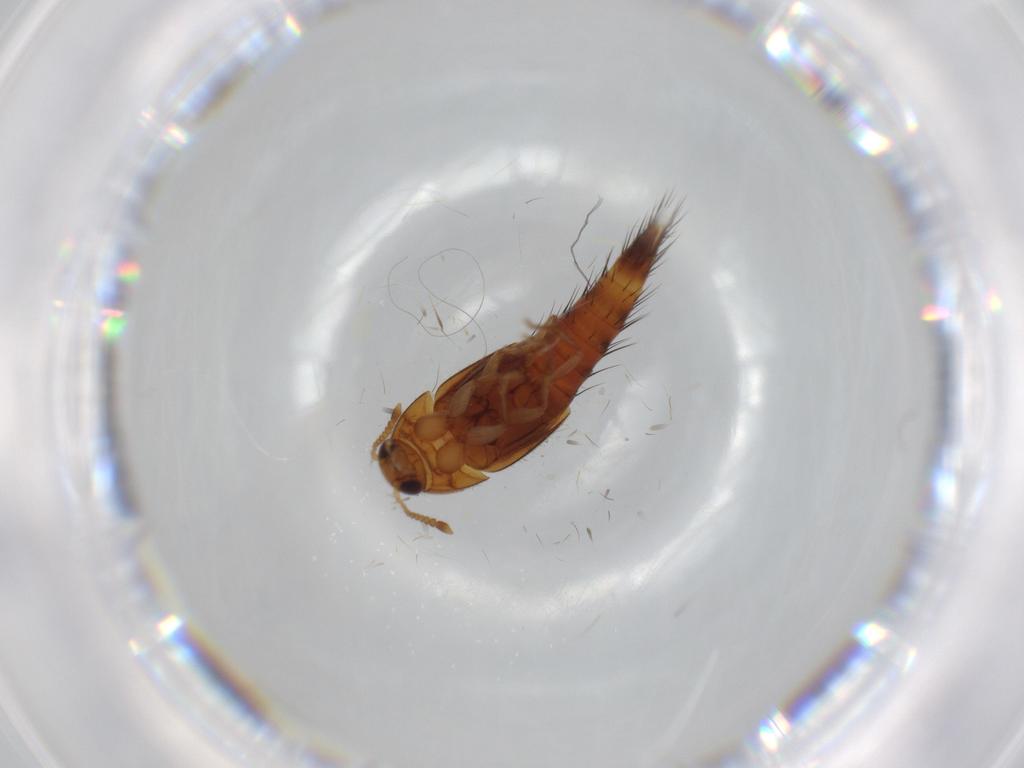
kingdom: Animalia
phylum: Arthropoda
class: Insecta
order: Coleoptera
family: Staphylinidae
